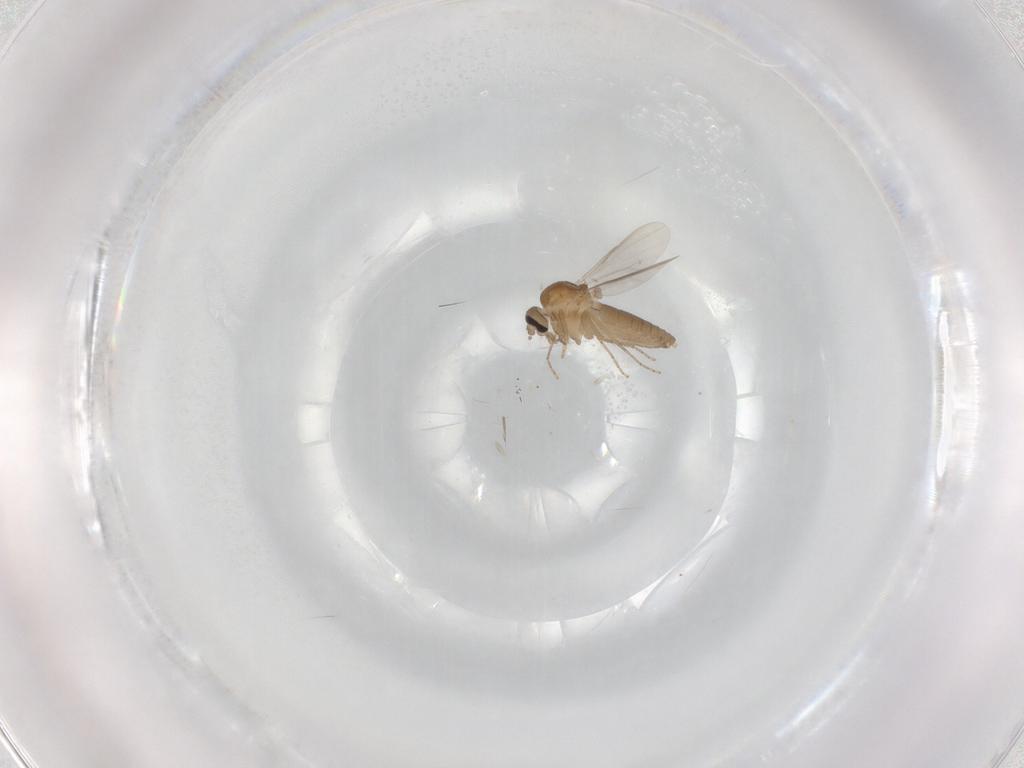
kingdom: Animalia
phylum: Arthropoda
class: Insecta
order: Diptera
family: Ceratopogonidae
